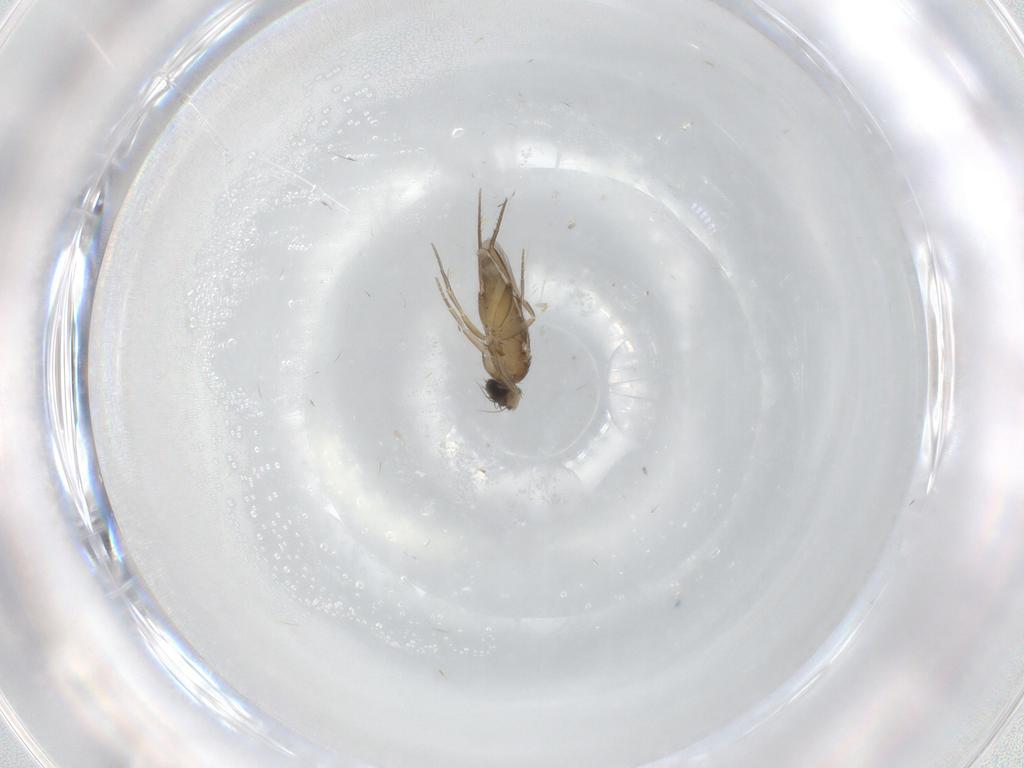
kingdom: Animalia
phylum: Arthropoda
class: Insecta
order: Diptera
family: Phoridae
